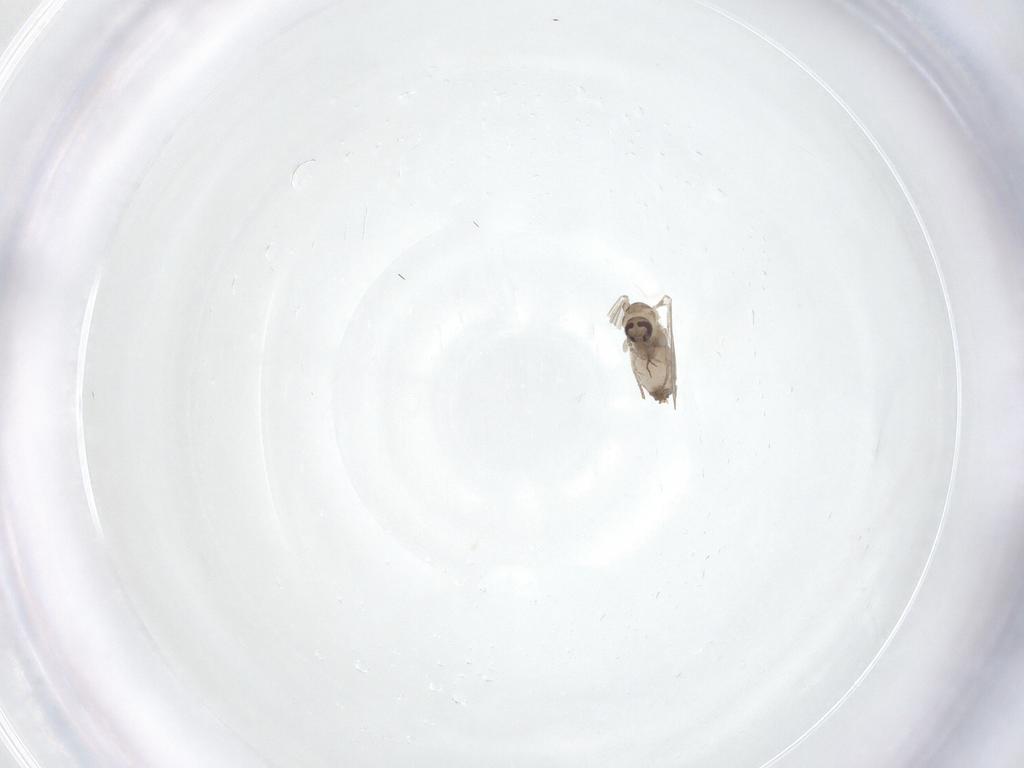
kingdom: Animalia
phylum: Arthropoda
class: Insecta
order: Diptera
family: Psychodidae
